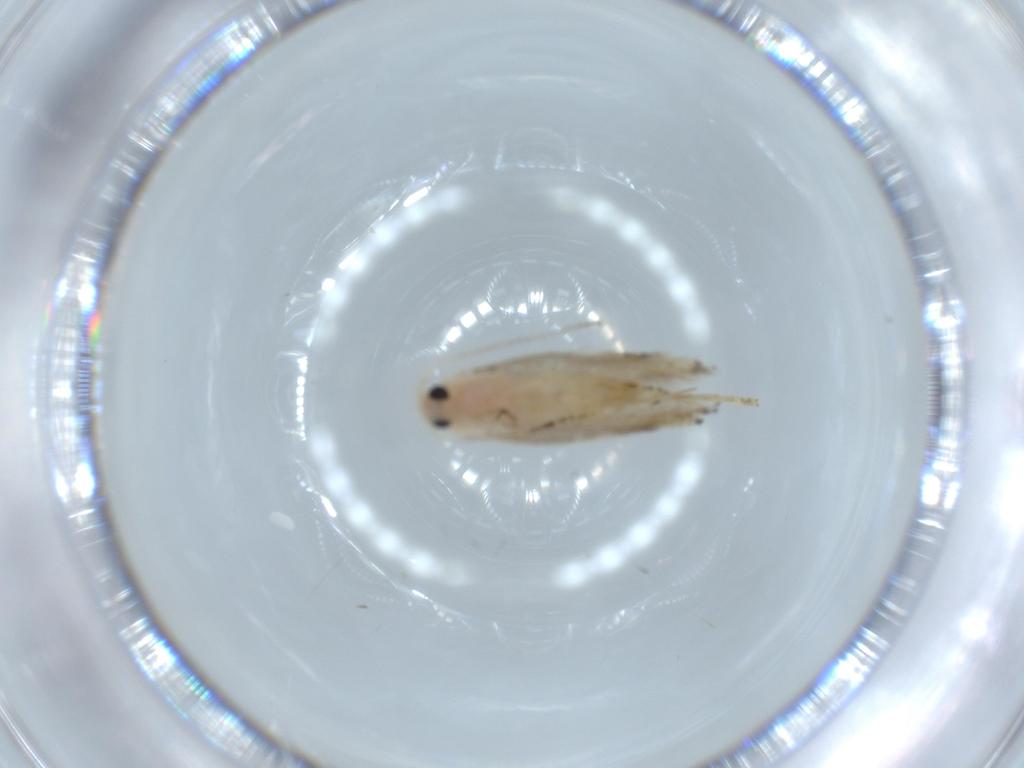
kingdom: Animalia
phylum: Arthropoda
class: Insecta
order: Lepidoptera
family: Bucculatricidae
